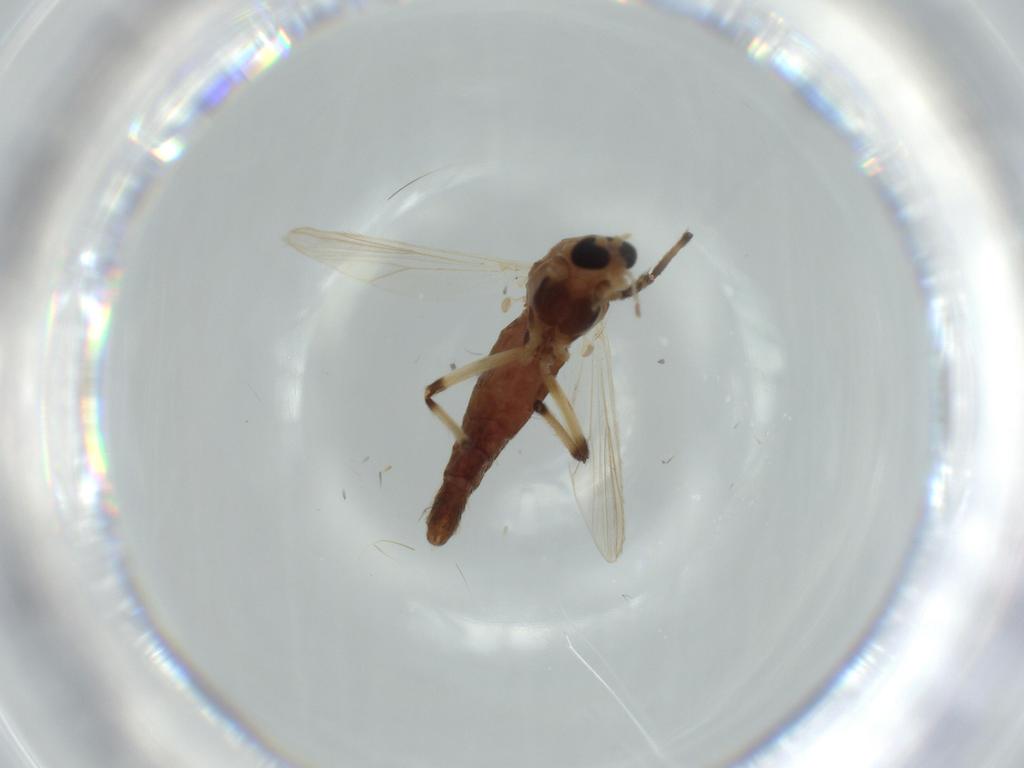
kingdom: Animalia
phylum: Arthropoda
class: Insecta
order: Diptera
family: Milichiidae
